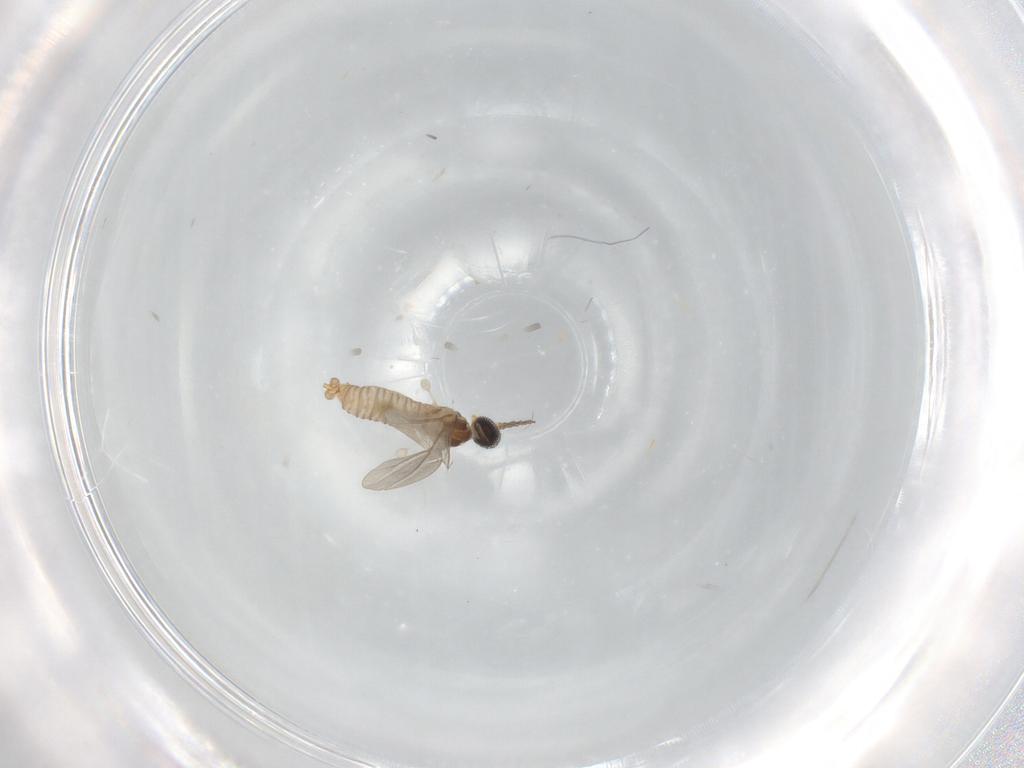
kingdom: Animalia
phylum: Arthropoda
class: Insecta
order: Diptera
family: Cecidomyiidae
